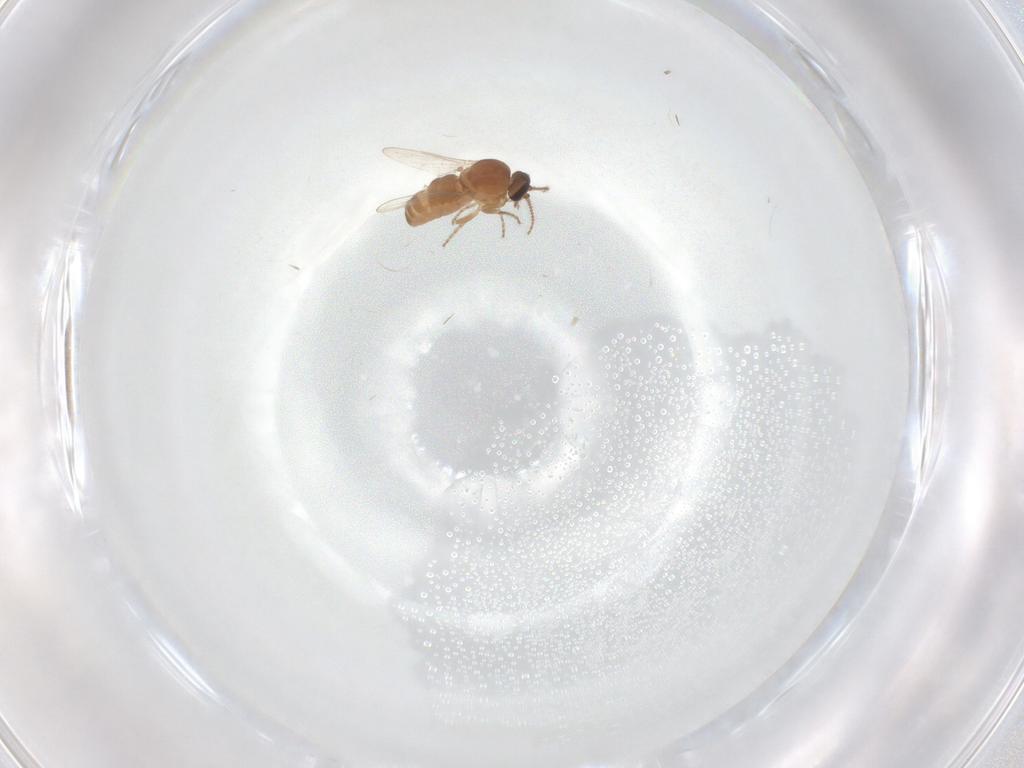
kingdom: Animalia
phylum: Arthropoda
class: Insecta
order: Diptera
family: Ceratopogonidae
